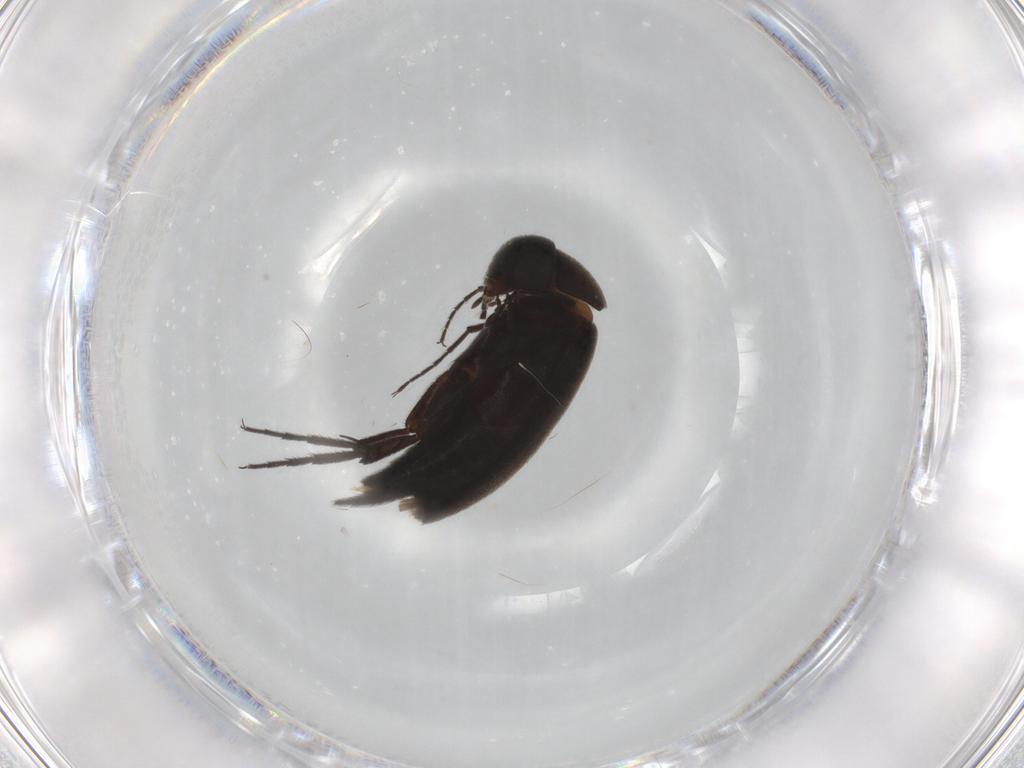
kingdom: Animalia
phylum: Arthropoda
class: Insecta
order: Coleoptera
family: Mordellidae
